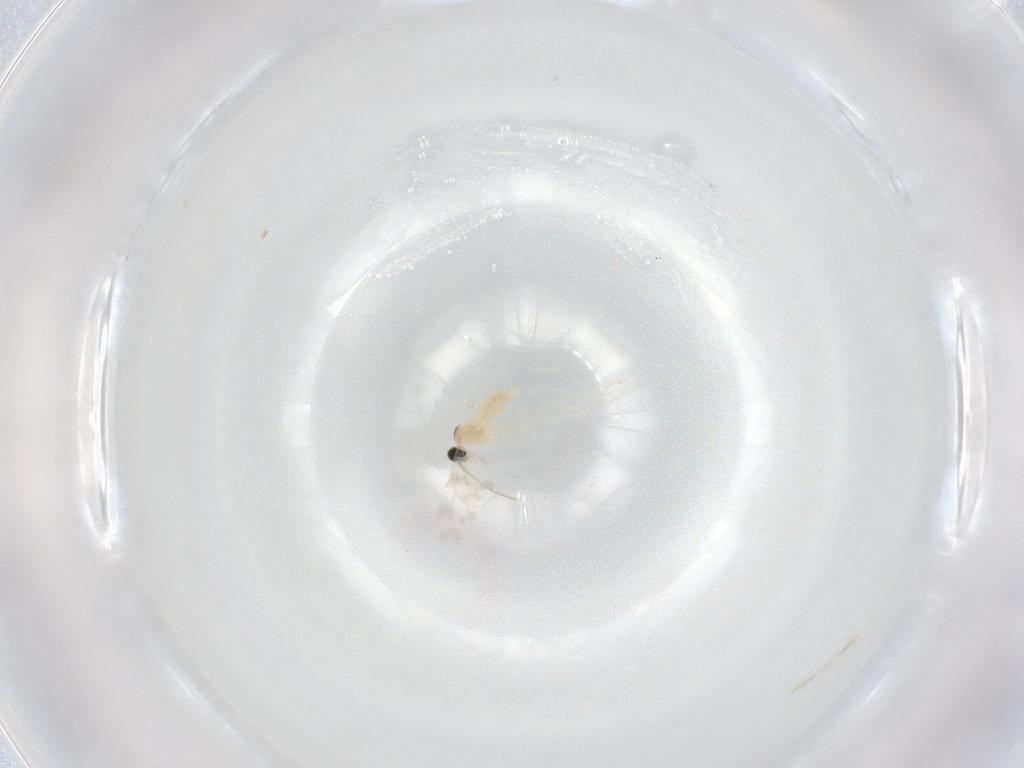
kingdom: Animalia
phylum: Arthropoda
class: Insecta
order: Diptera
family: Cecidomyiidae
